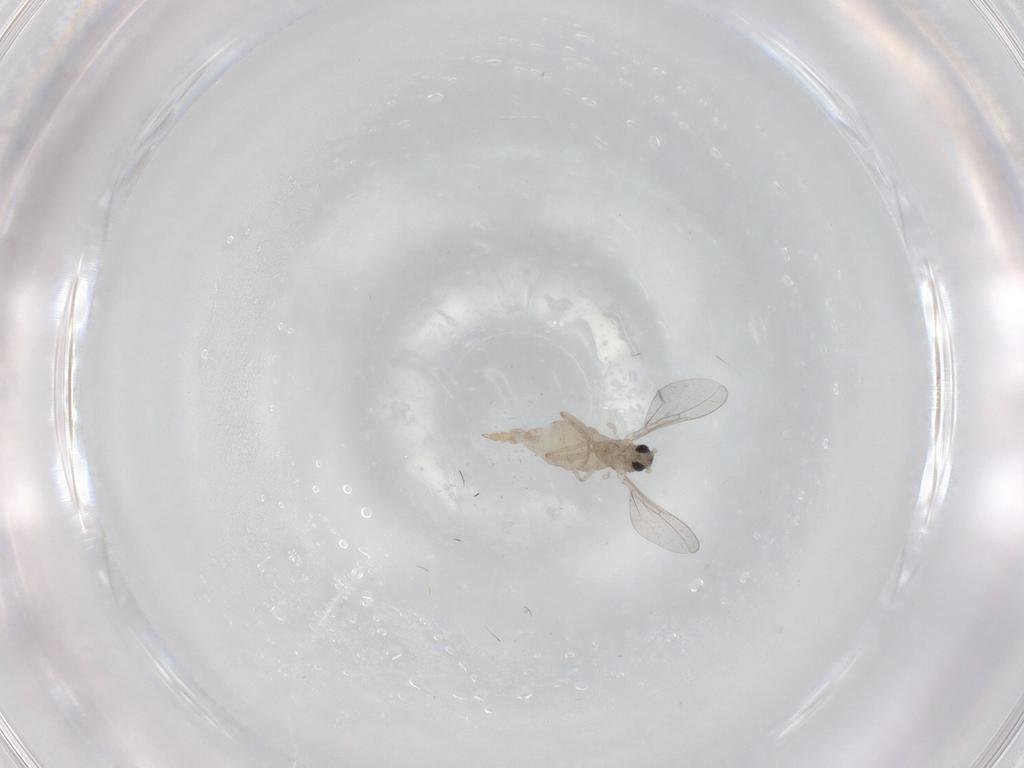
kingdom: Animalia
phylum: Arthropoda
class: Insecta
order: Diptera
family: Cecidomyiidae
